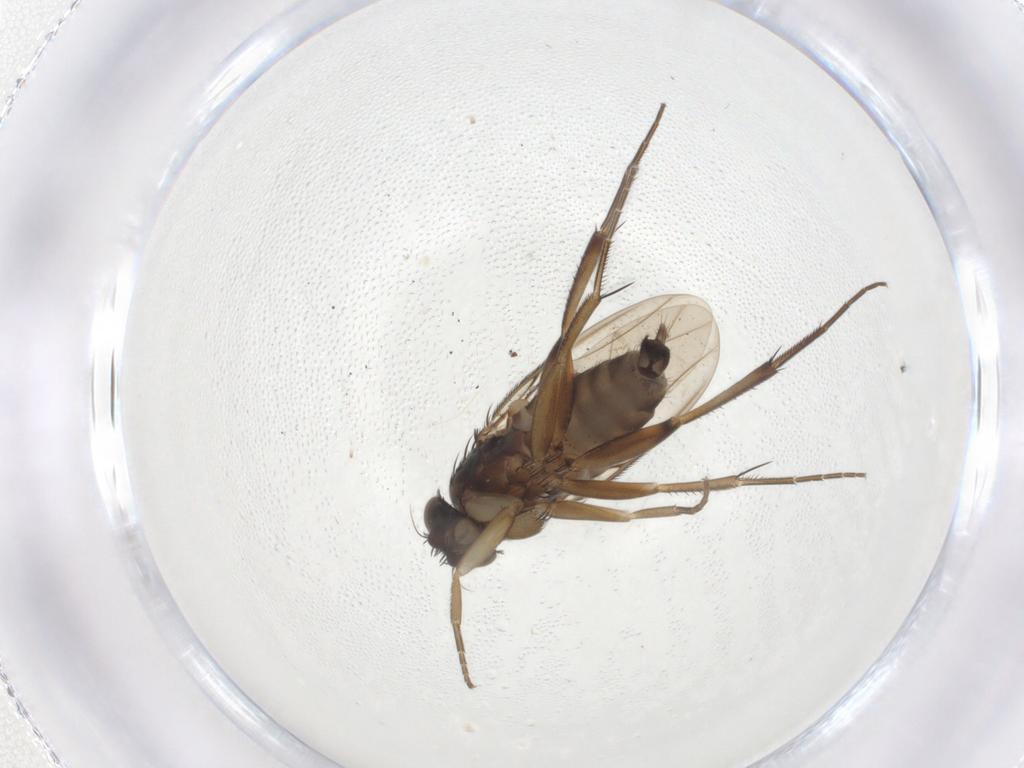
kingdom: Animalia
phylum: Arthropoda
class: Insecta
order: Diptera
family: Phoridae
